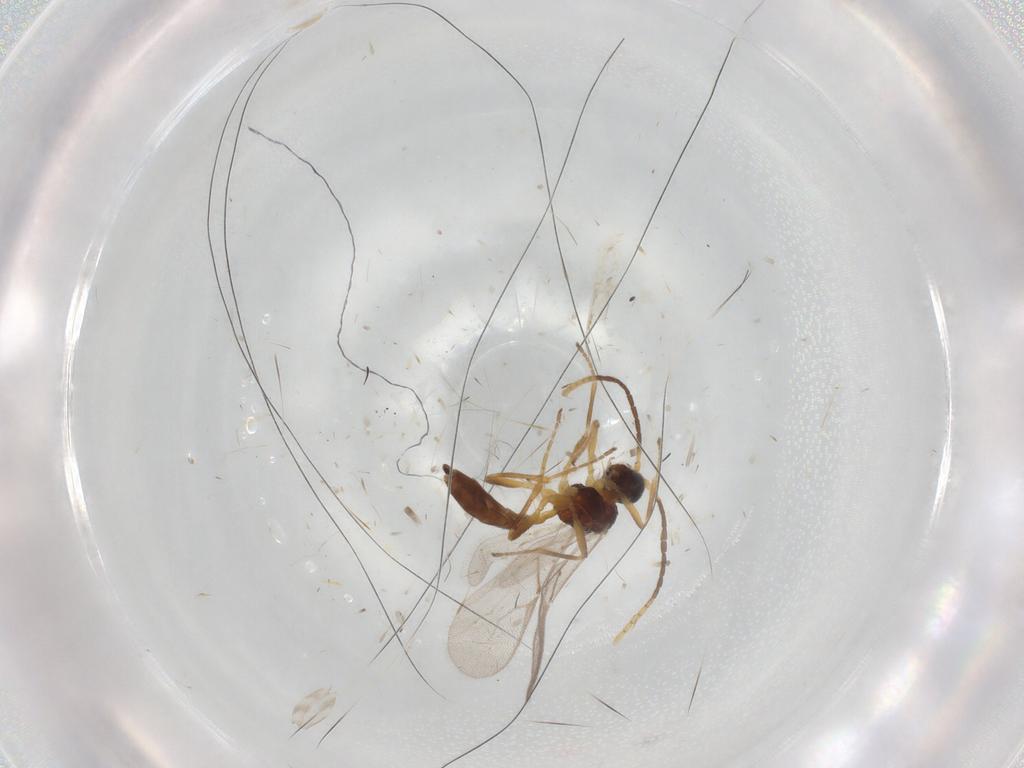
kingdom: Animalia
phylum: Arthropoda
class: Insecta
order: Hymenoptera
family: Braconidae
